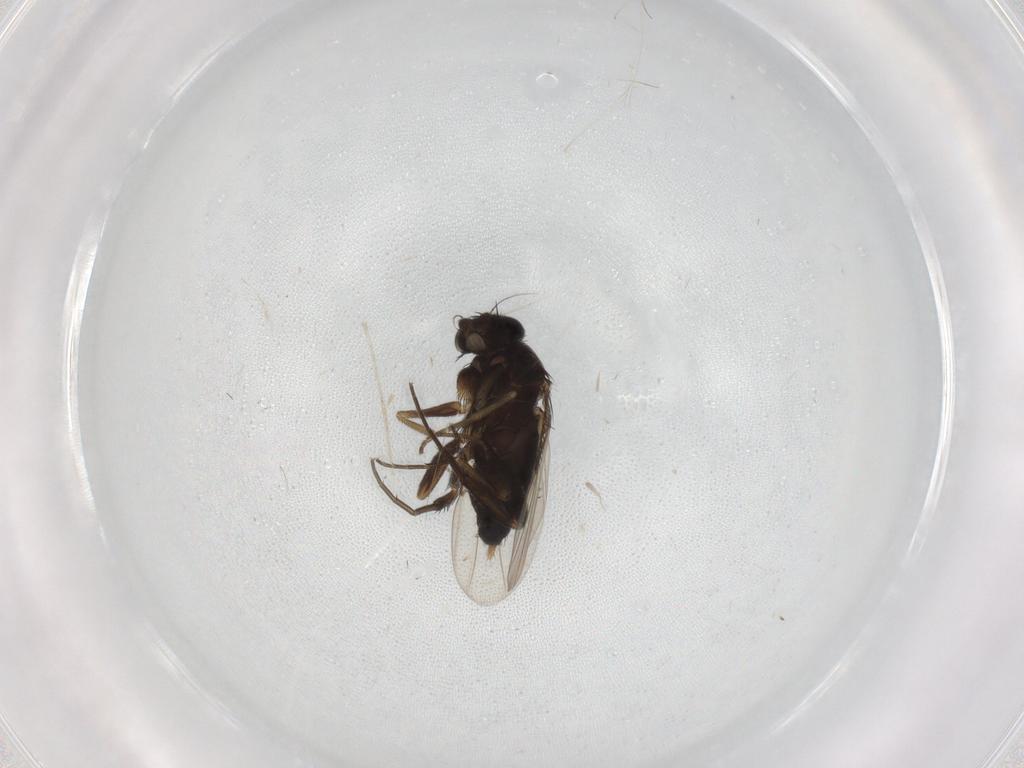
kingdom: Animalia
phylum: Arthropoda
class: Insecta
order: Diptera
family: Phoridae
